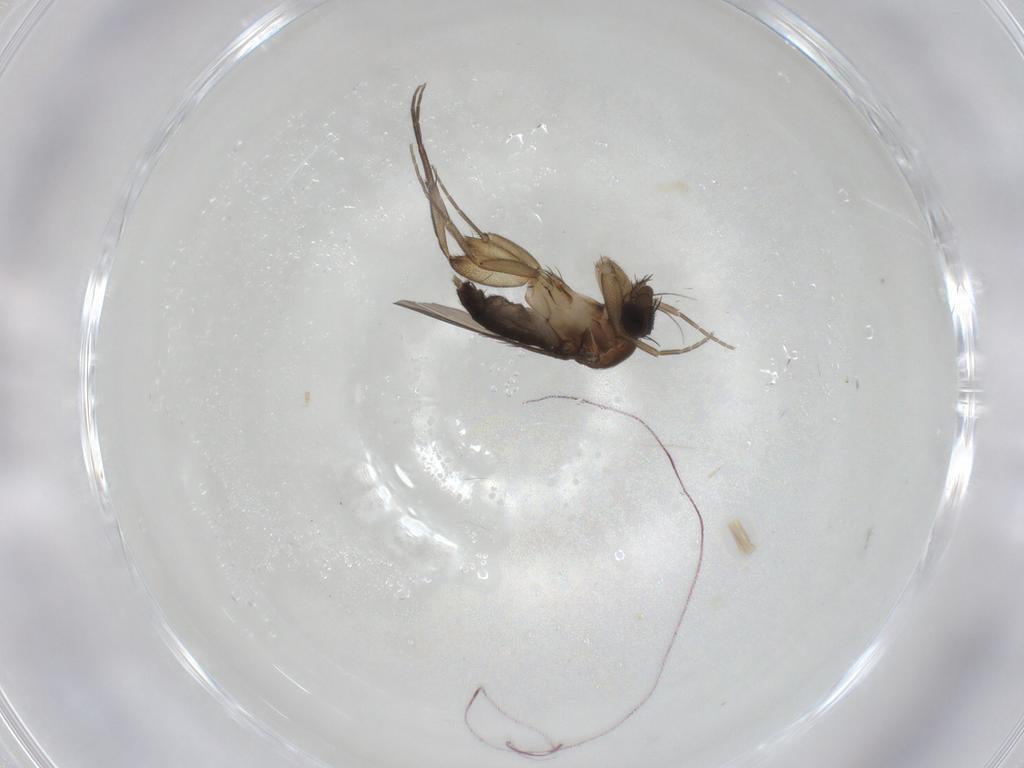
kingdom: Animalia
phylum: Arthropoda
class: Insecta
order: Diptera
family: Phoridae
